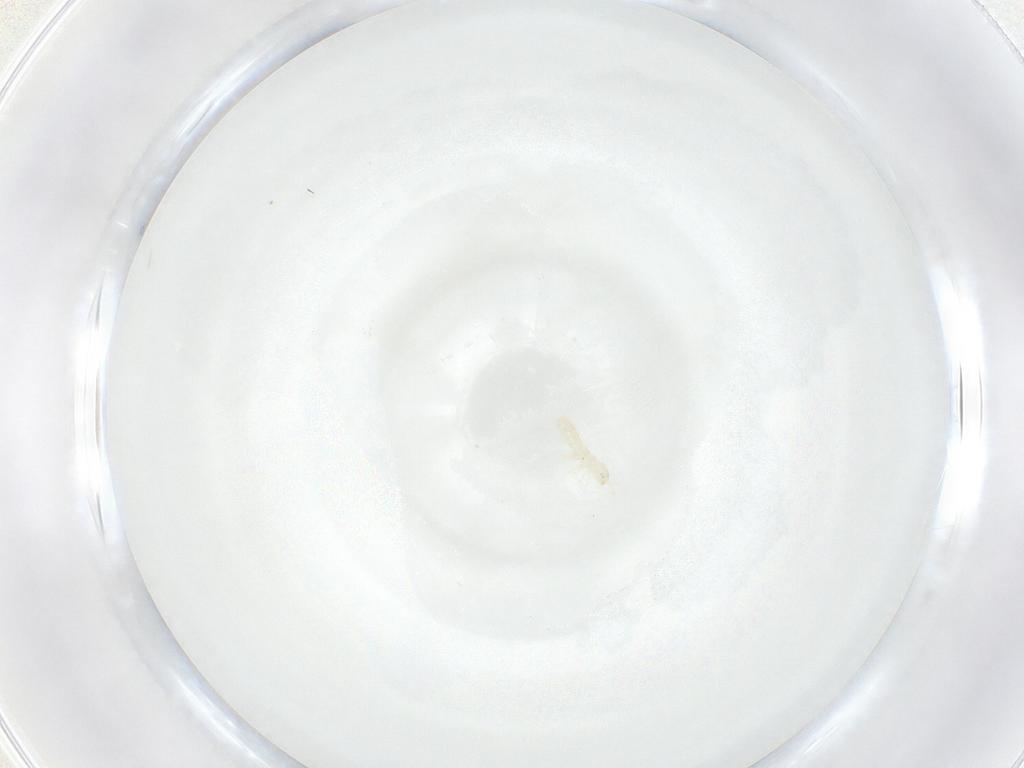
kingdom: Animalia
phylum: Arthropoda
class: Collembola
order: Entomobryomorpha
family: Isotomidae
